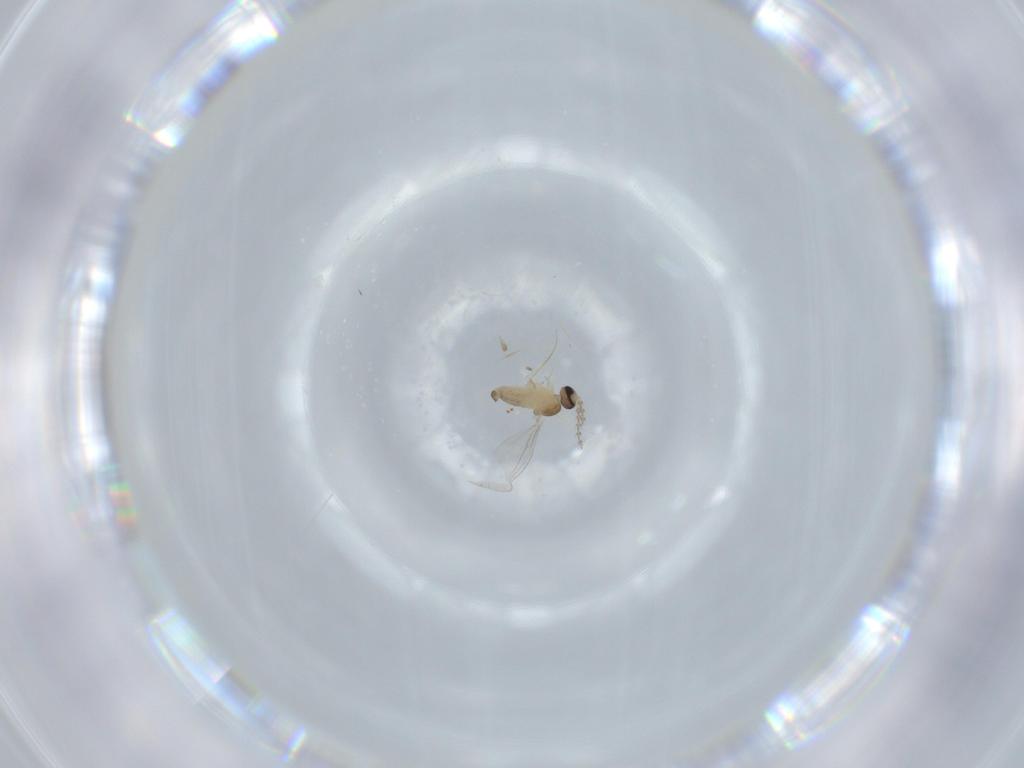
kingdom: Animalia
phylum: Arthropoda
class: Insecta
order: Diptera
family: Cecidomyiidae
